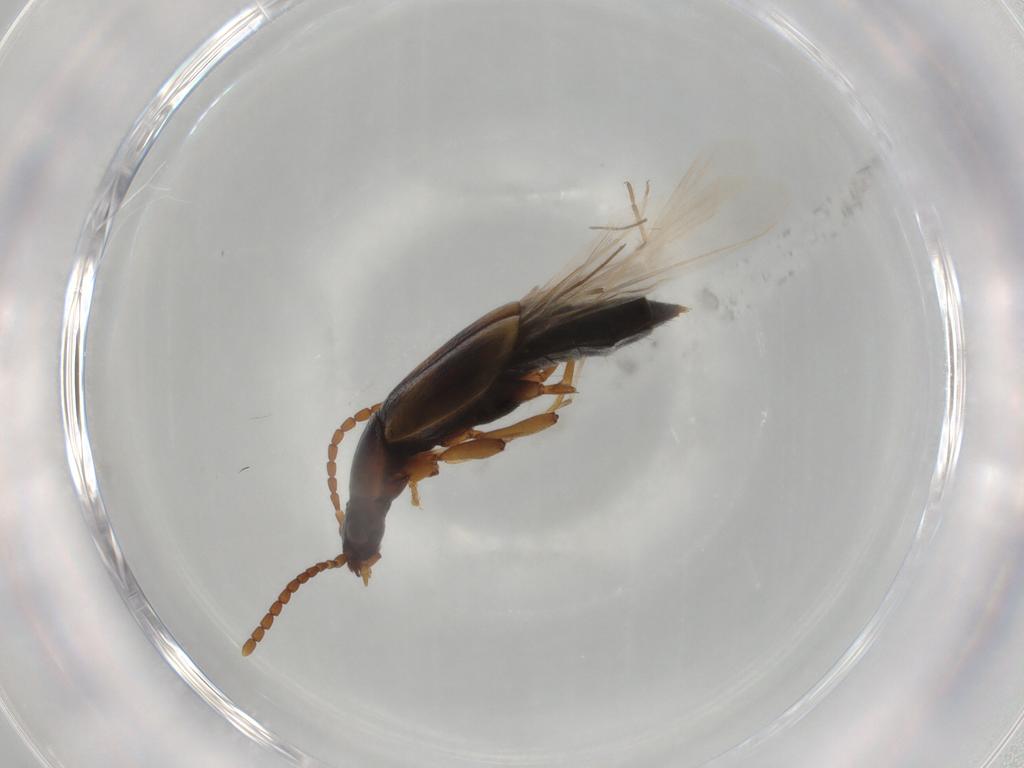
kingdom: Animalia
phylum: Arthropoda
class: Insecta
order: Coleoptera
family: Staphylinidae
